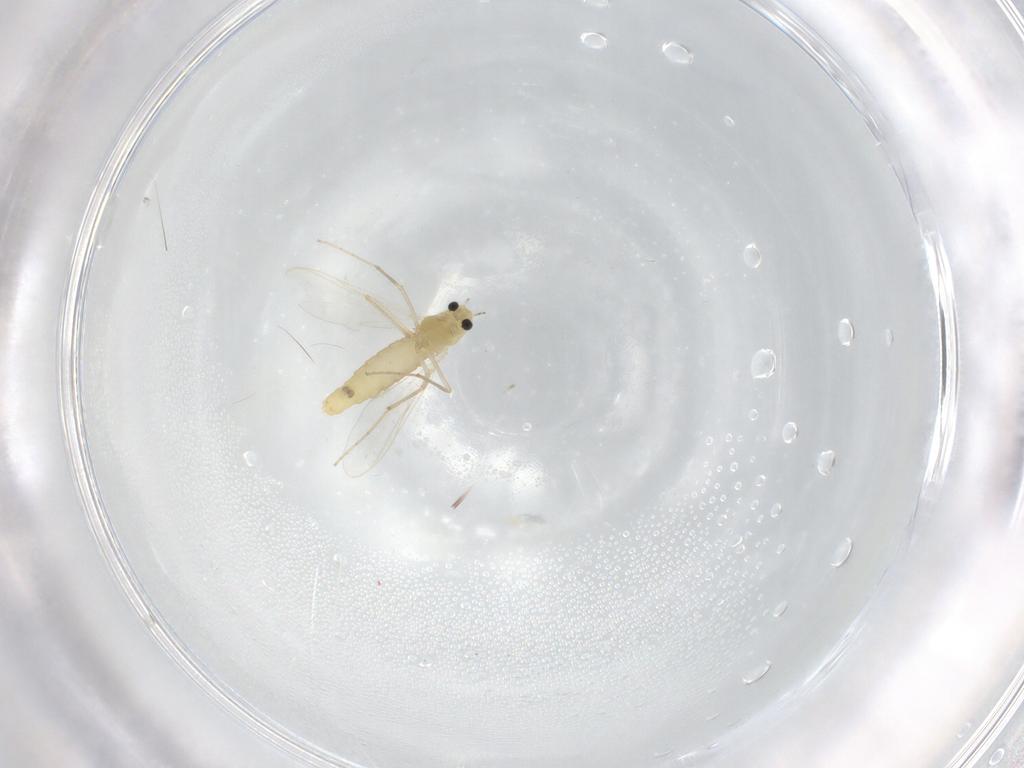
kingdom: Animalia
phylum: Arthropoda
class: Insecta
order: Diptera
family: Chironomidae
